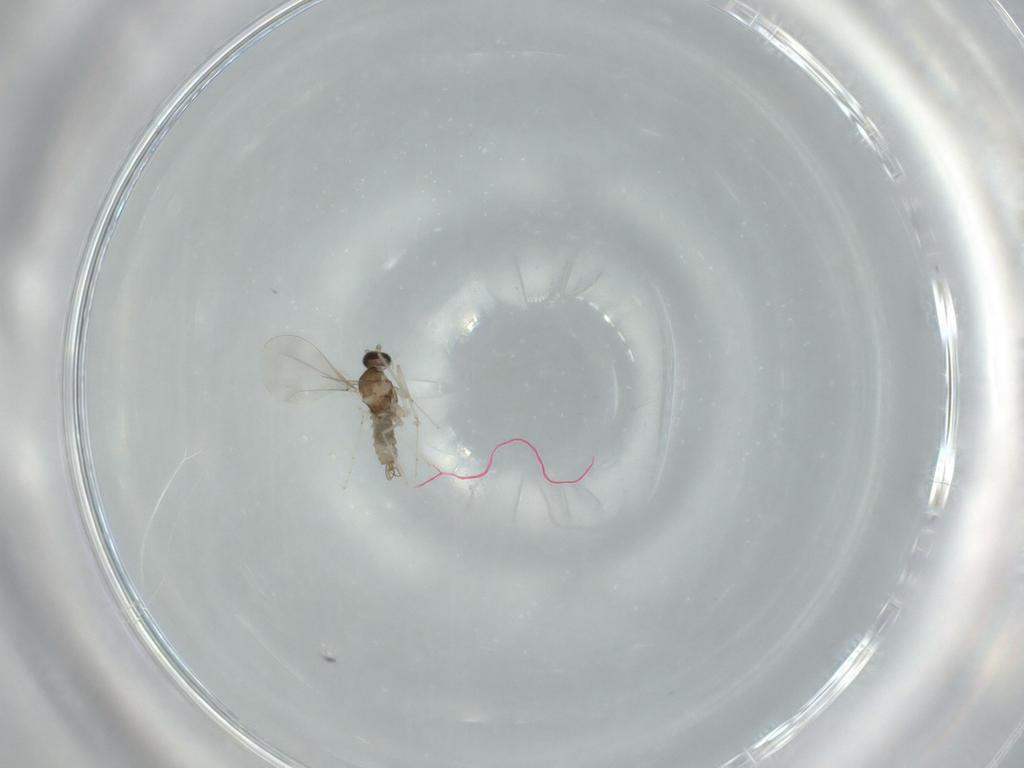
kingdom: Animalia
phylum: Arthropoda
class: Insecta
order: Diptera
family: Cecidomyiidae
